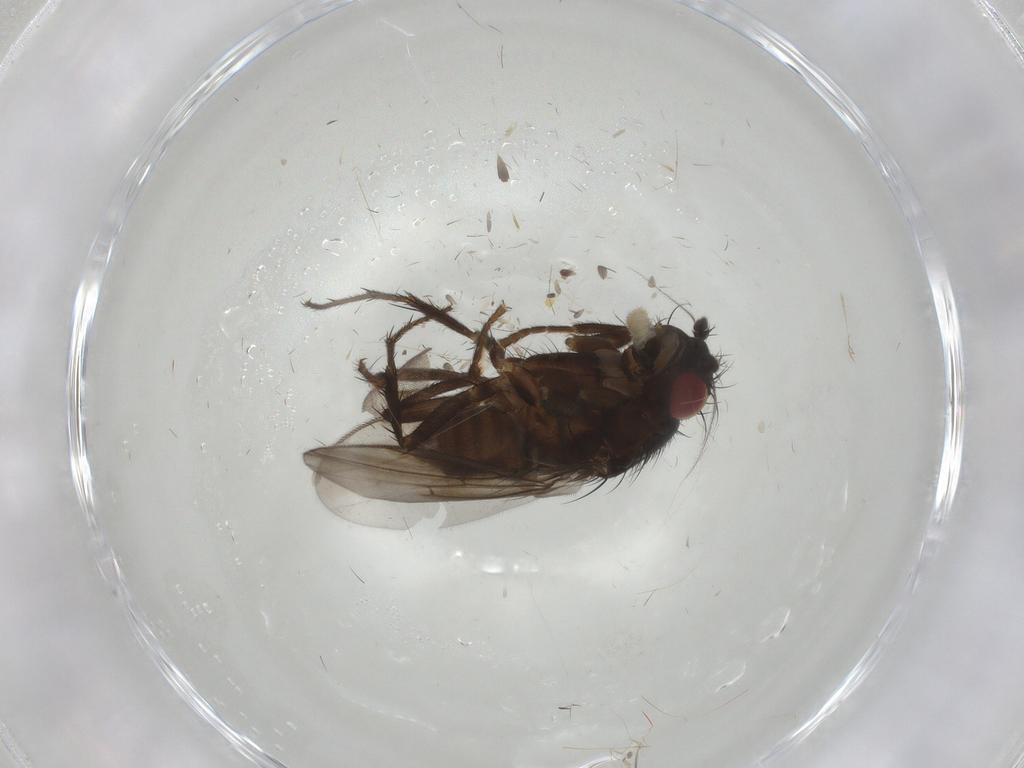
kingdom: Animalia
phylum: Arthropoda
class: Insecta
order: Diptera
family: Sphaeroceridae
